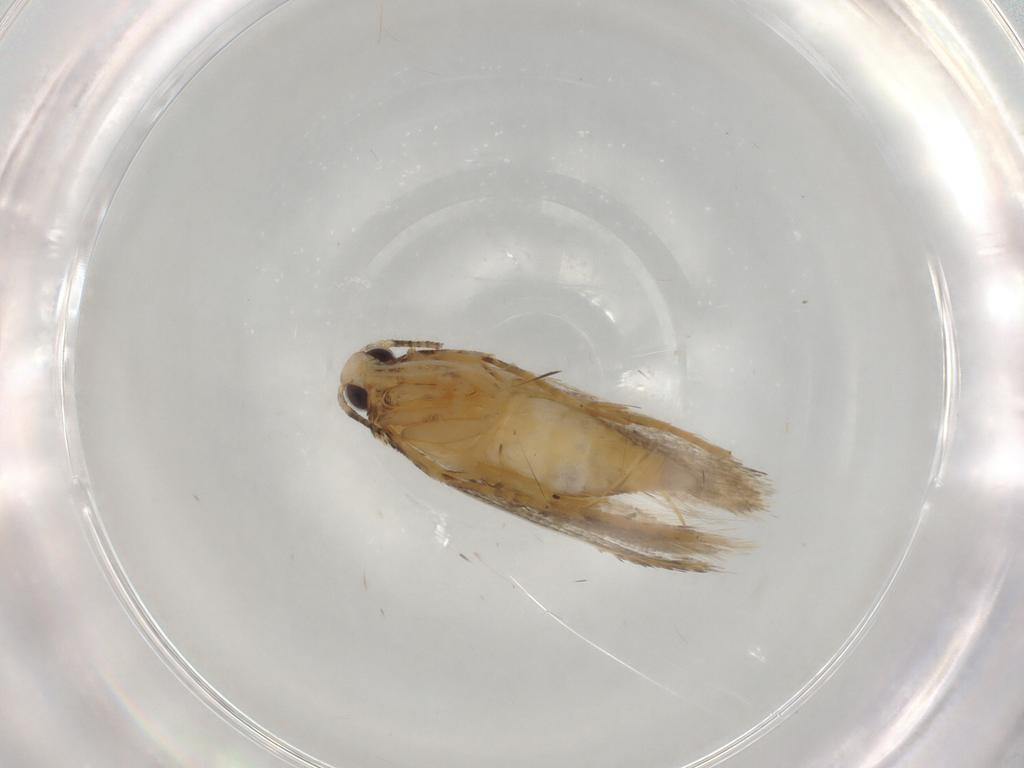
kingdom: Animalia
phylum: Arthropoda
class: Insecta
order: Lepidoptera
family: Autostichidae
